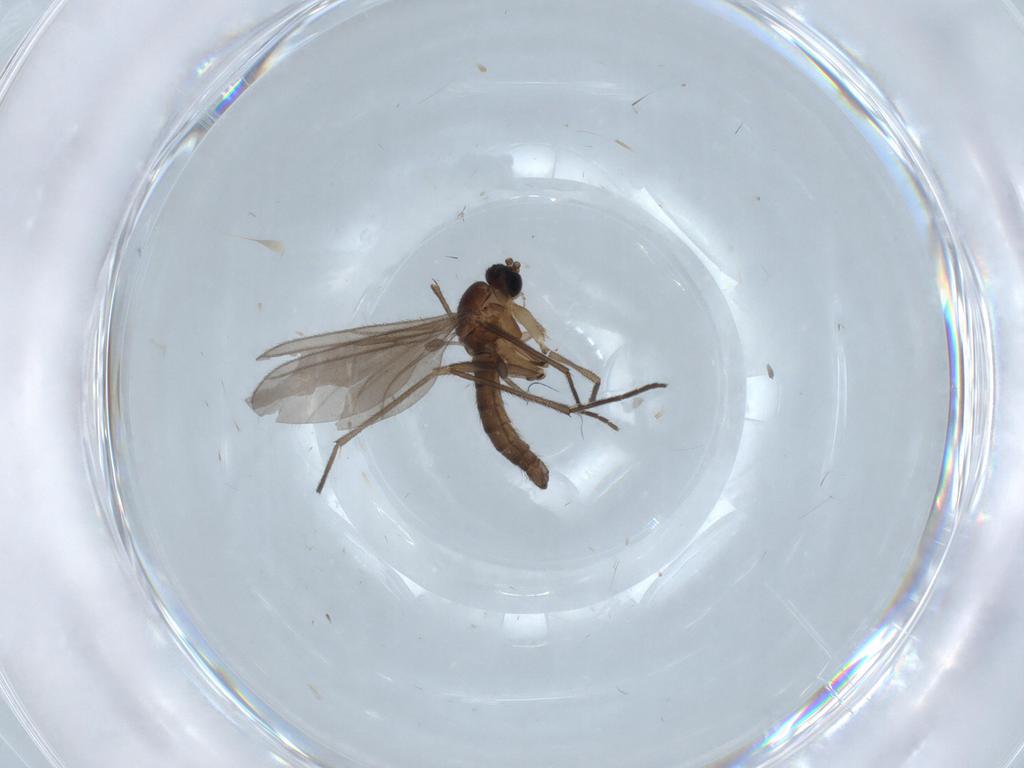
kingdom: Animalia
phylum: Arthropoda
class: Insecta
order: Diptera
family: Sciaridae
